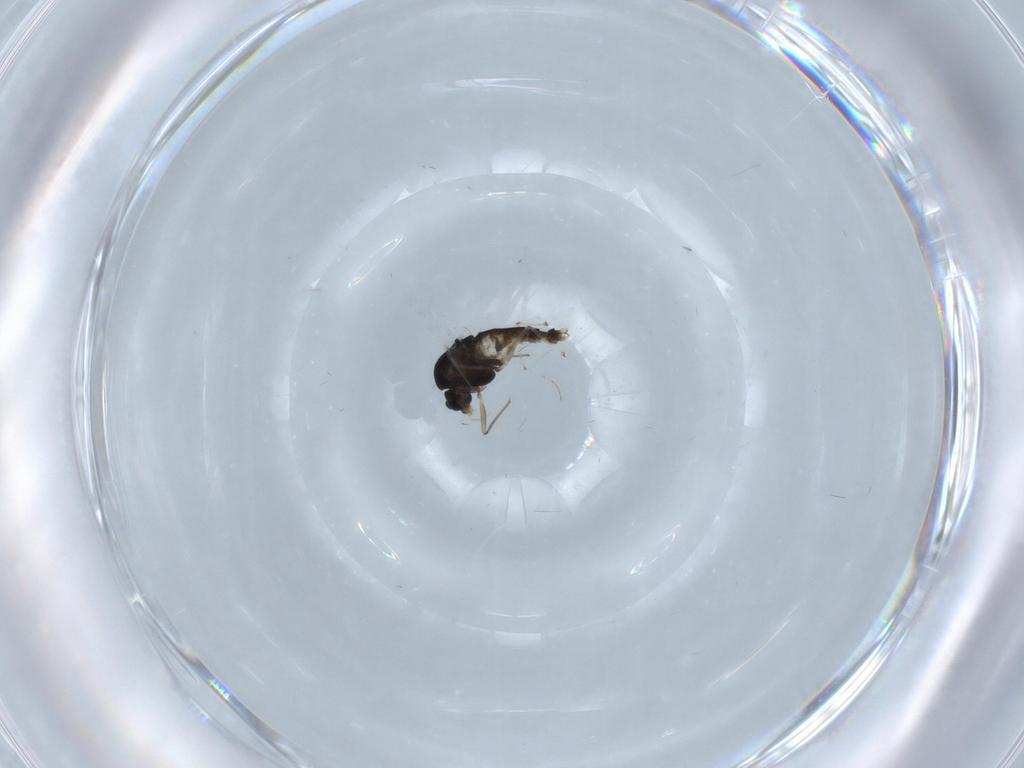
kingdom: Animalia
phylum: Arthropoda
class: Insecta
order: Diptera
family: Chironomidae
